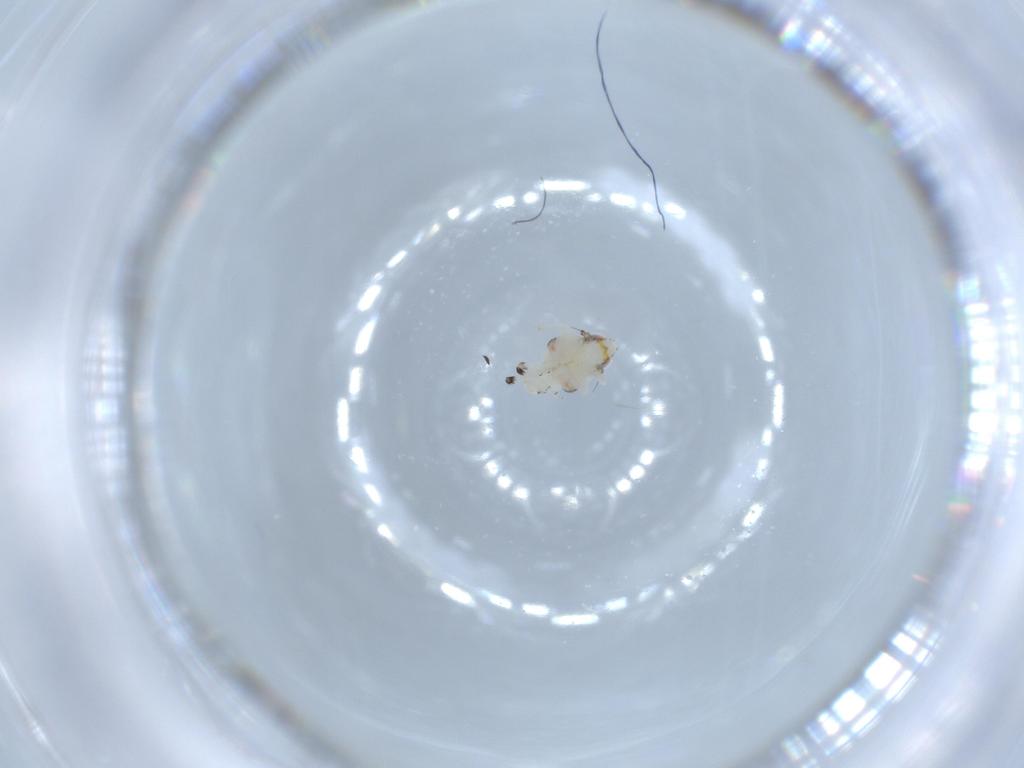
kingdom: Animalia
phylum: Arthropoda
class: Insecta
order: Hemiptera
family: Nogodinidae
